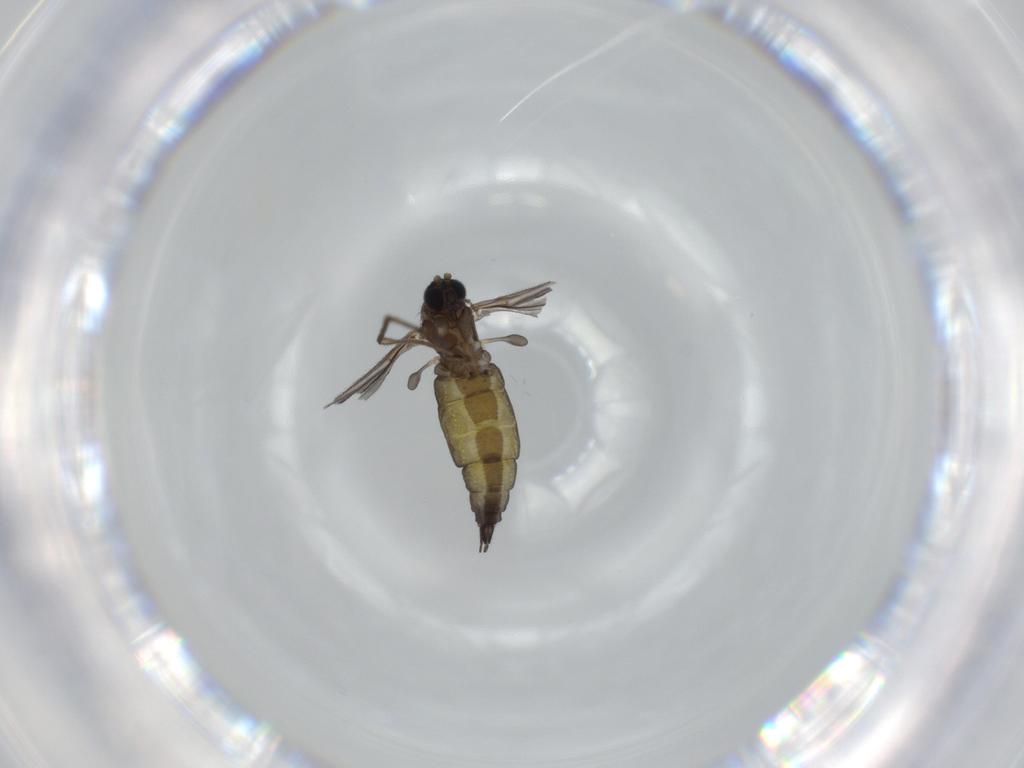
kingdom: Animalia
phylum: Arthropoda
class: Insecta
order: Diptera
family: Sciaridae
